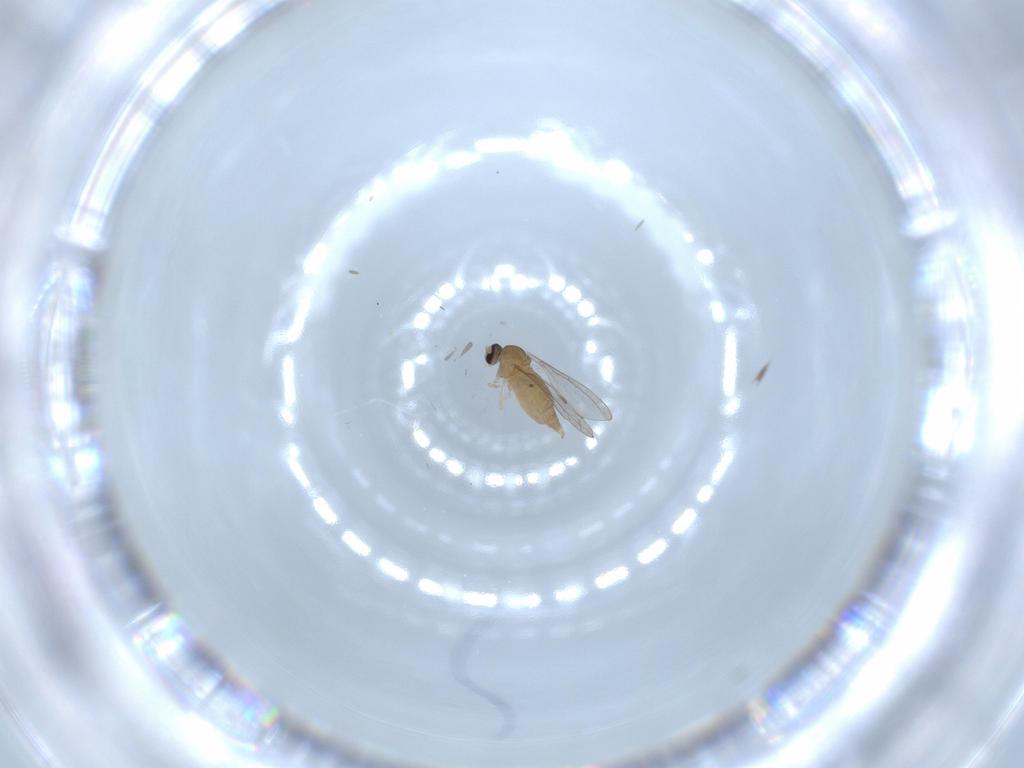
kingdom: Animalia
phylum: Arthropoda
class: Insecta
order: Diptera
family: Cecidomyiidae
